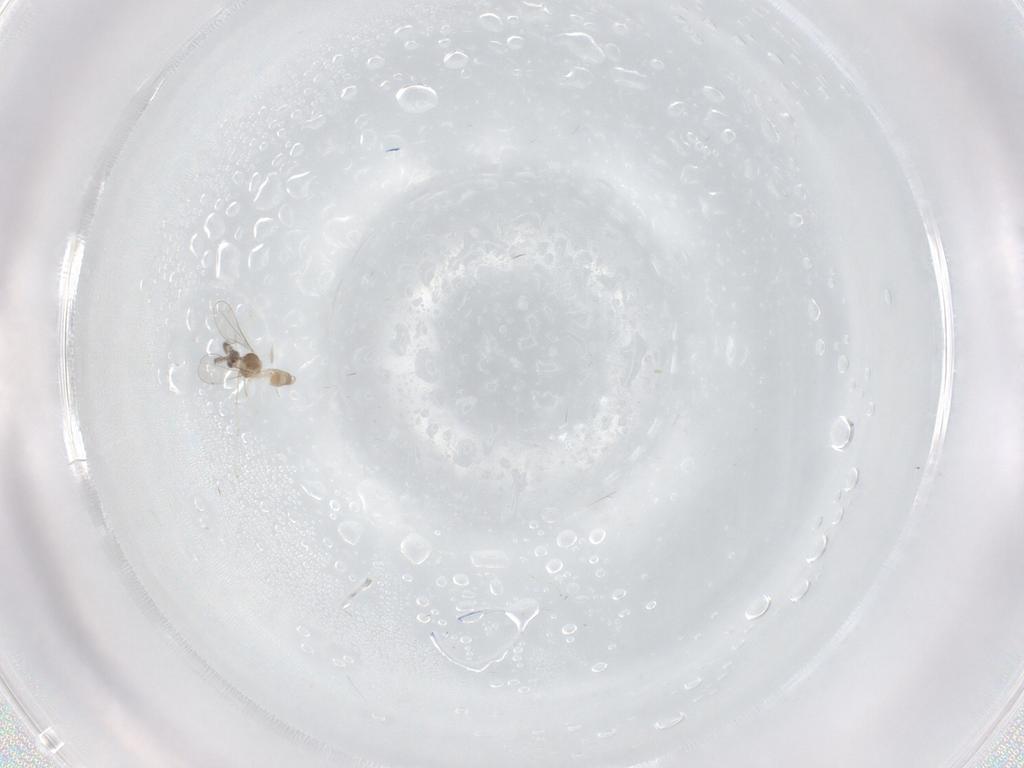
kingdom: Animalia
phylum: Arthropoda
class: Insecta
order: Diptera
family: Cecidomyiidae
